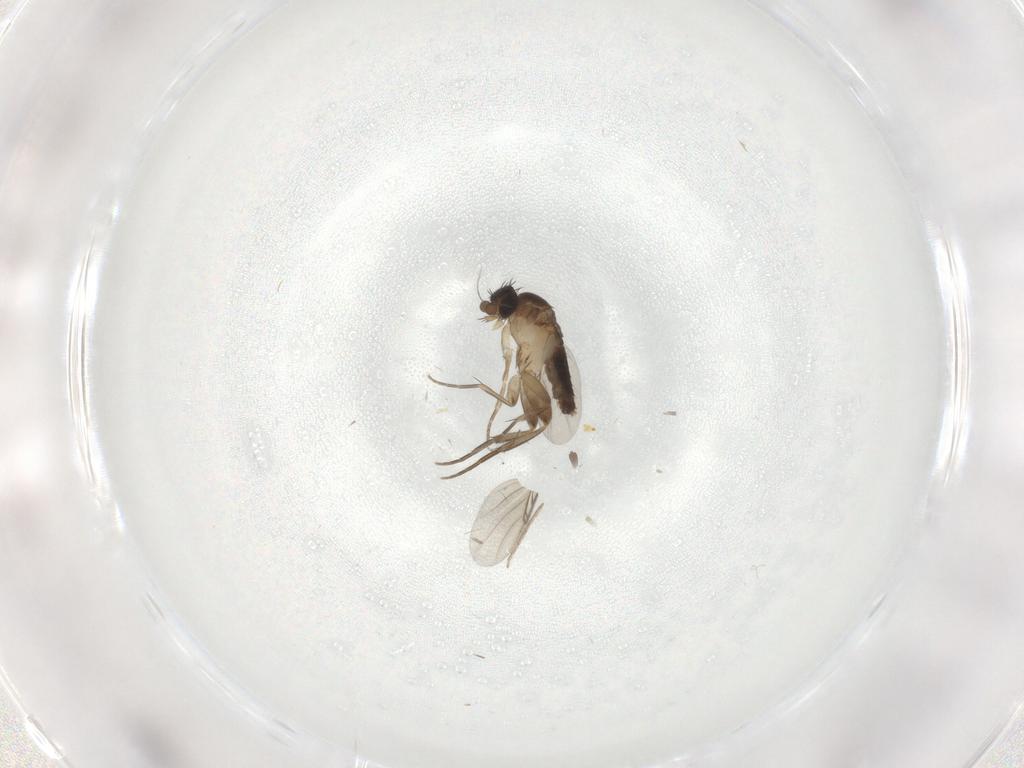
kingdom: Animalia
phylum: Arthropoda
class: Insecta
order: Diptera
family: Phoridae
